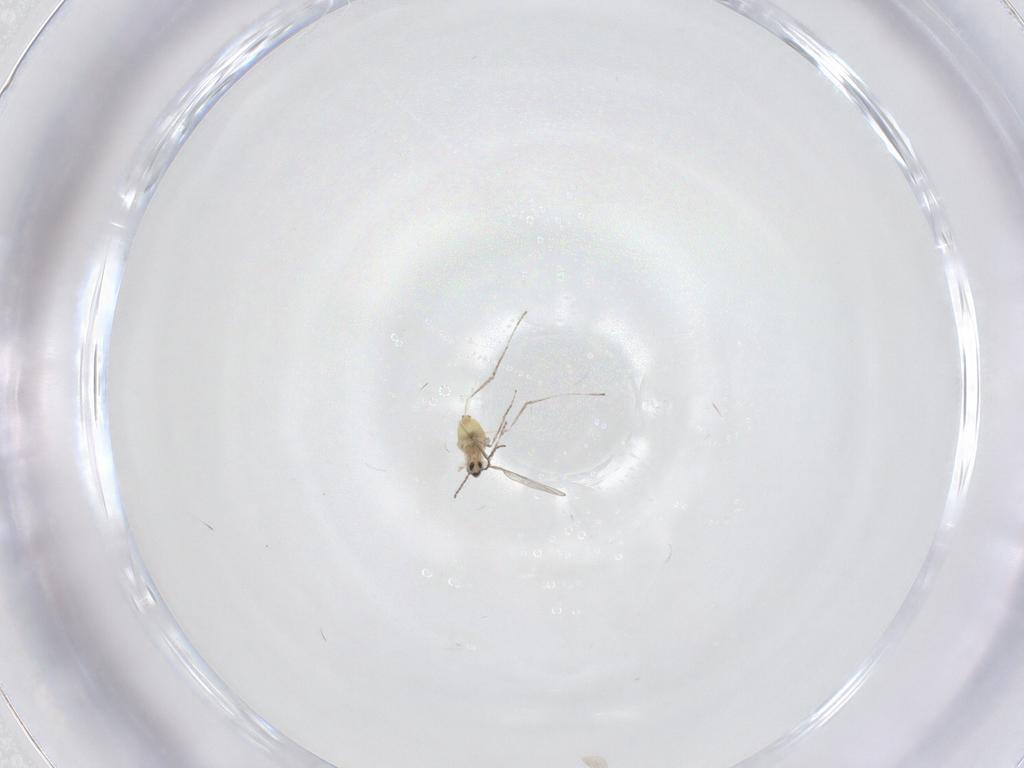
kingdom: Animalia
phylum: Arthropoda
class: Insecta
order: Diptera
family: Cecidomyiidae
